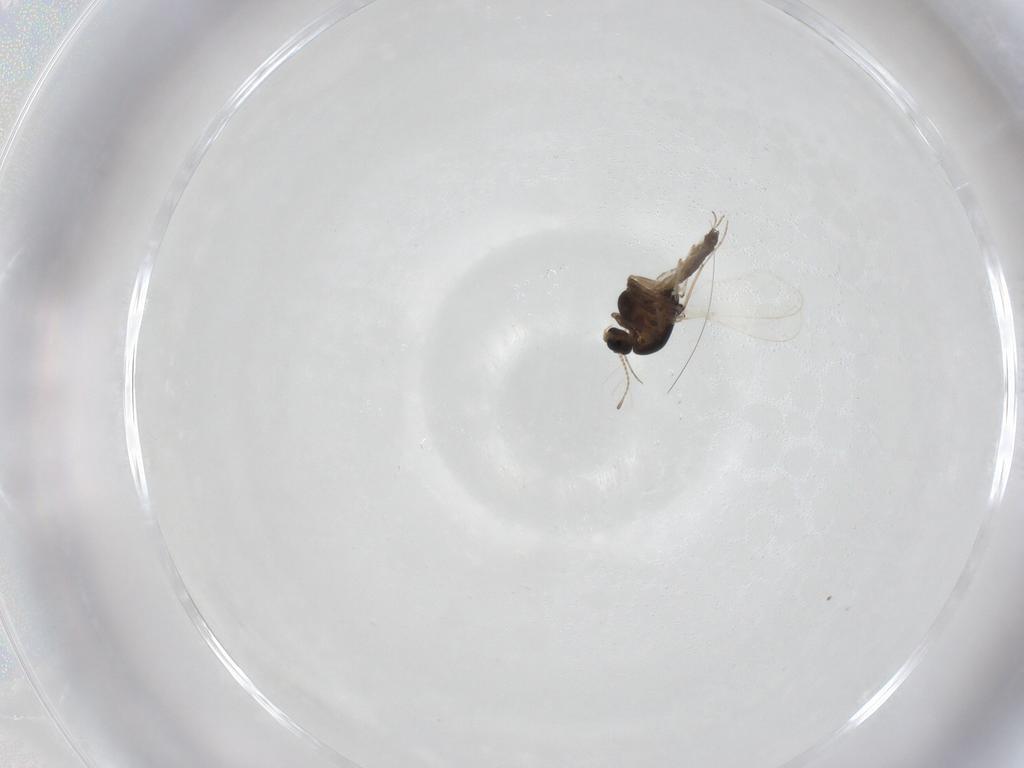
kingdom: Animalia
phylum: Arthropoda
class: Insecta
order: Diptera
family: Chironomidae
